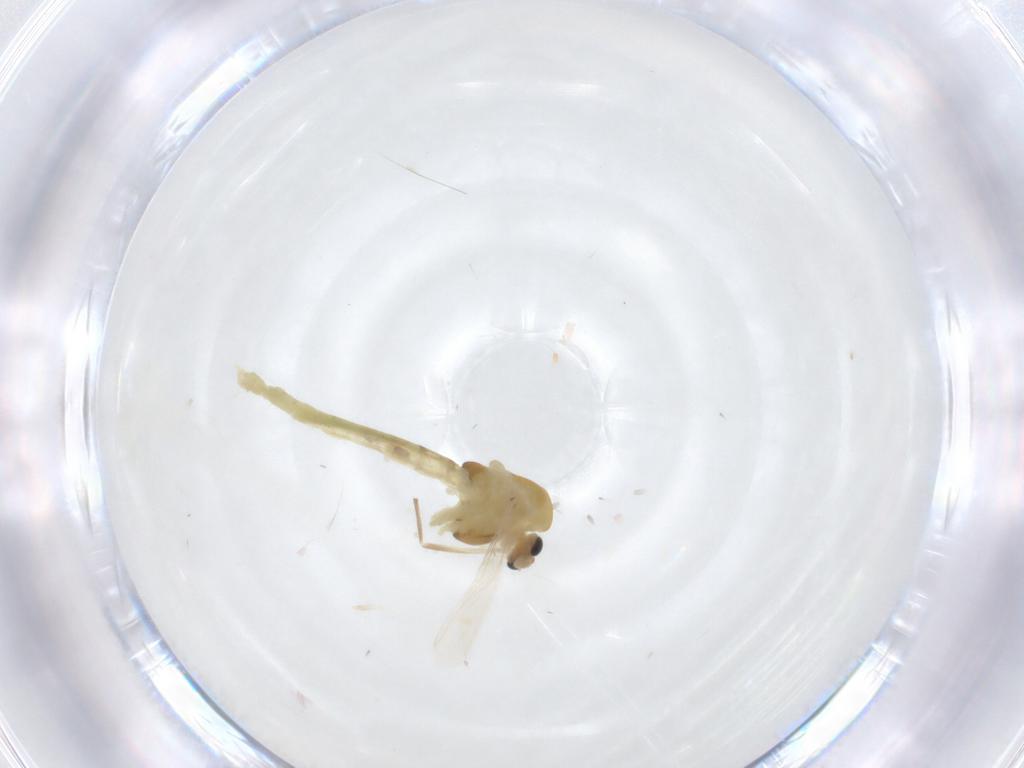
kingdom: Animalia
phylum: Arthropoda
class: Insecta
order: Diptera
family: Chironomidae
